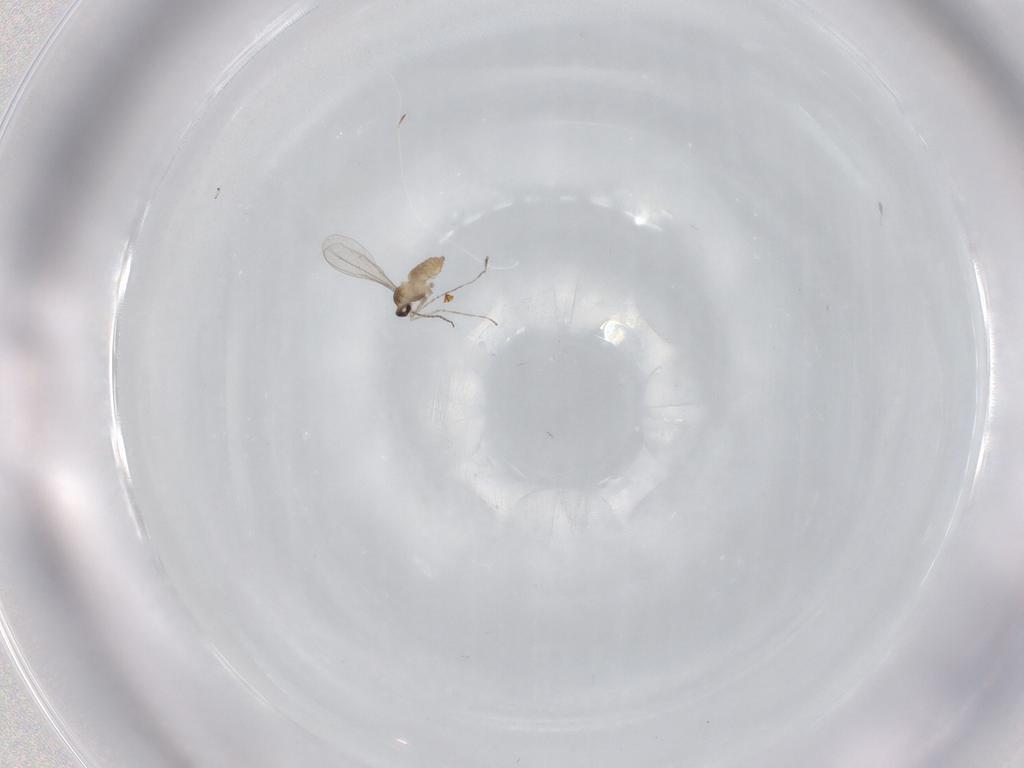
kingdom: Animalia
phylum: Arthropoda
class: Insecta
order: Diptera
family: Cecidomyiidae
